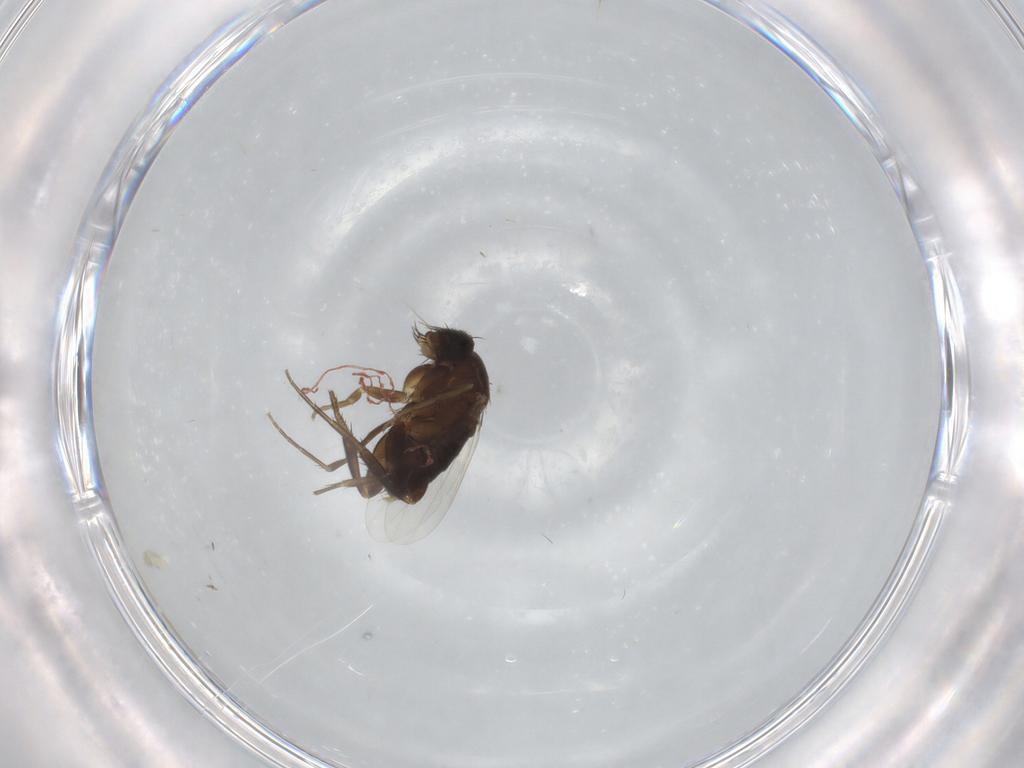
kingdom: Animalia
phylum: Arthropoda
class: Insecta
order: Diptera
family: Phoridae
